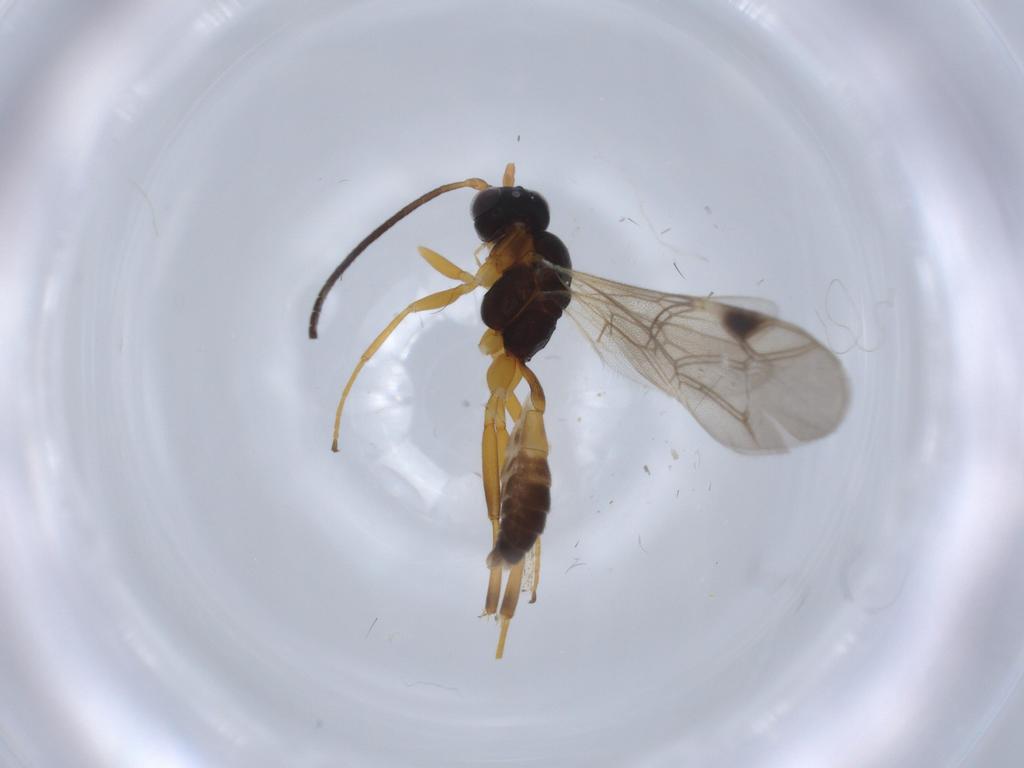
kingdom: Animalia
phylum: Arthropoda
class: Insecta
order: Hymenoptera
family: Ichneumonidae
